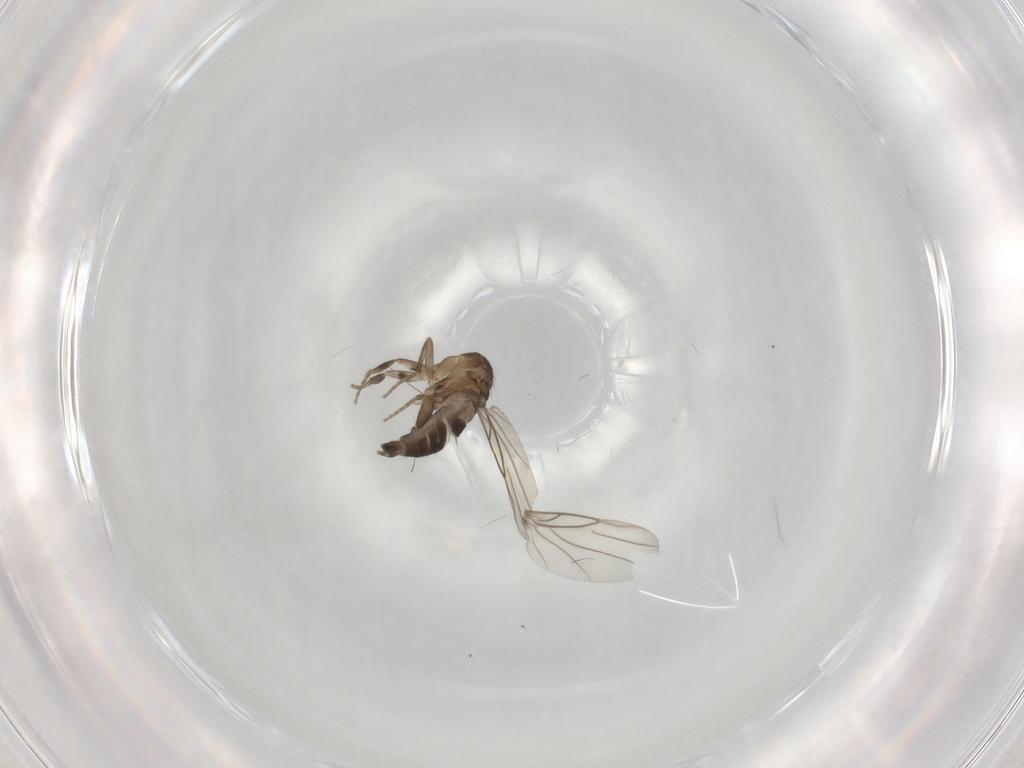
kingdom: Animalia
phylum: Arthropoda
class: Insecta
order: Diptera
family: Phoridae
